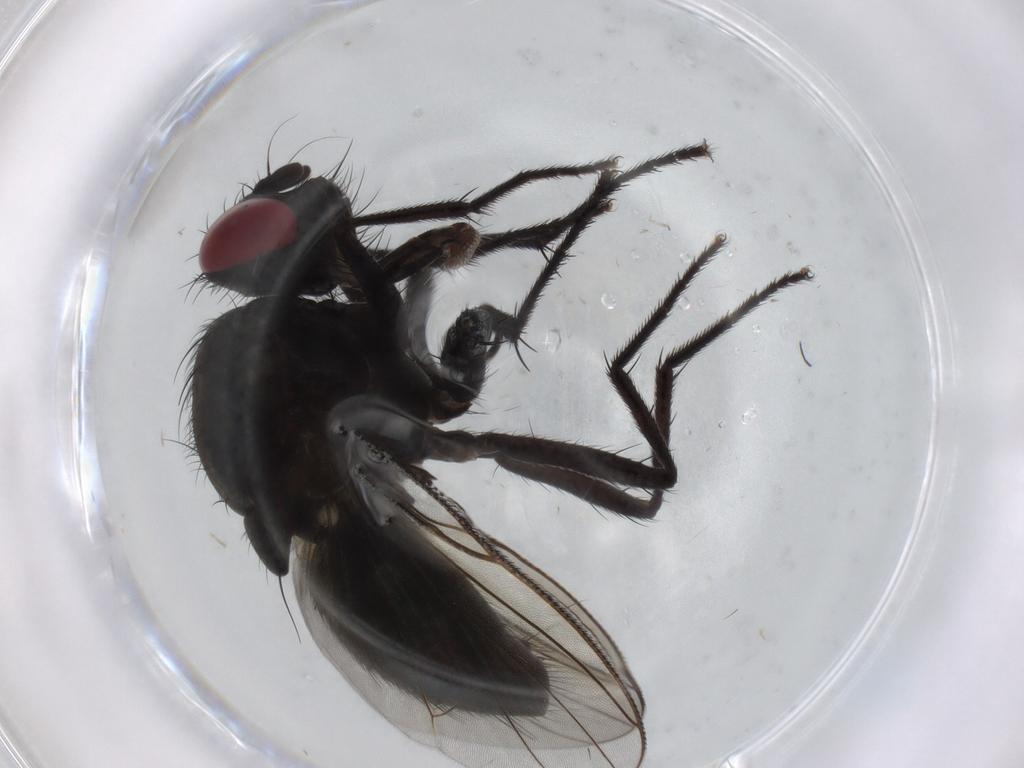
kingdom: Animalia
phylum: Arthropoda
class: Insecta
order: Diptera
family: Muscidae
